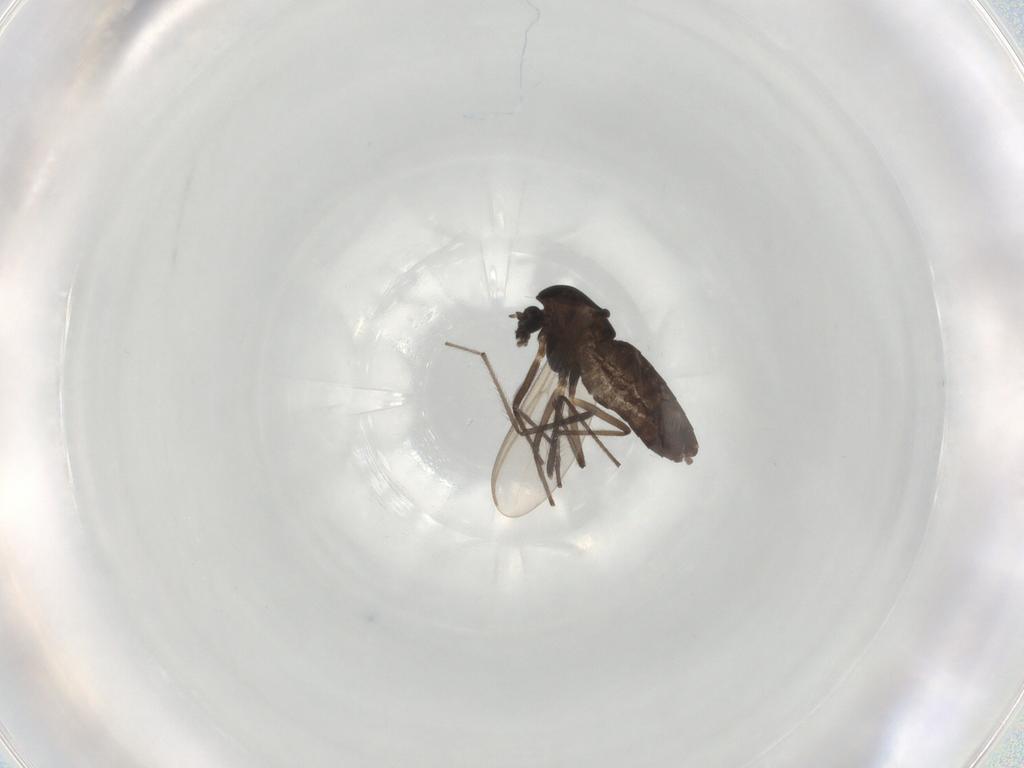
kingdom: Animalia
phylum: Arthropoda
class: Insecta
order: Diptera
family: Chironomidae
